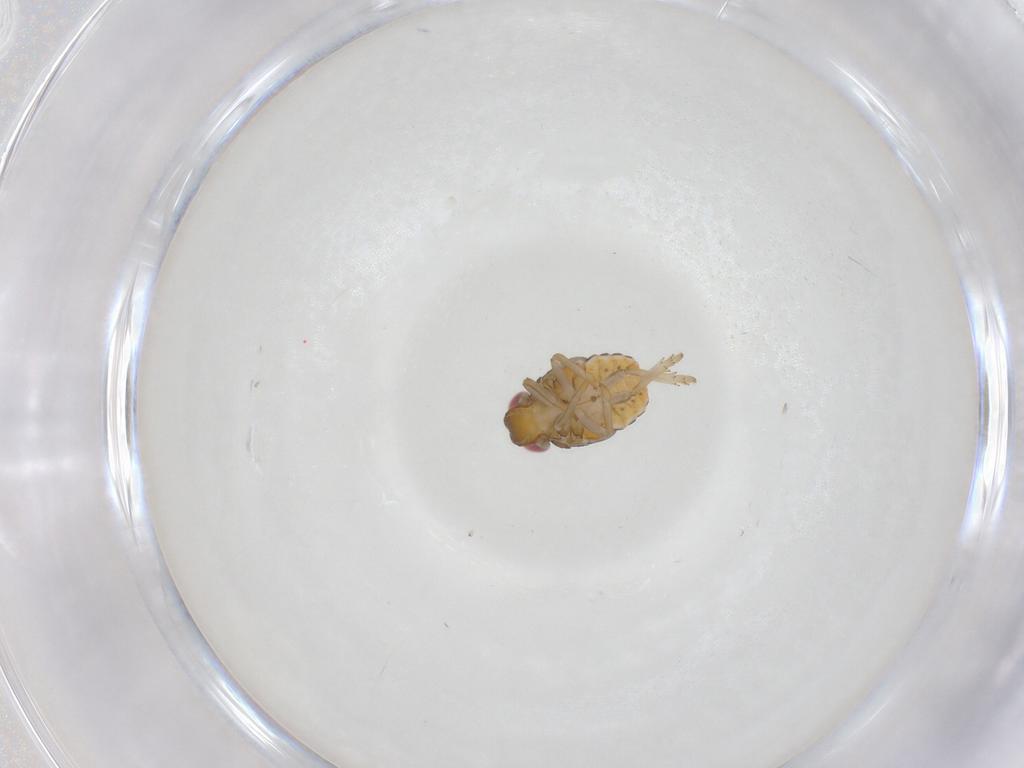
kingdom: Animalia
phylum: Arthropoda
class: Insecta
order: Hemiptera
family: Issidae
